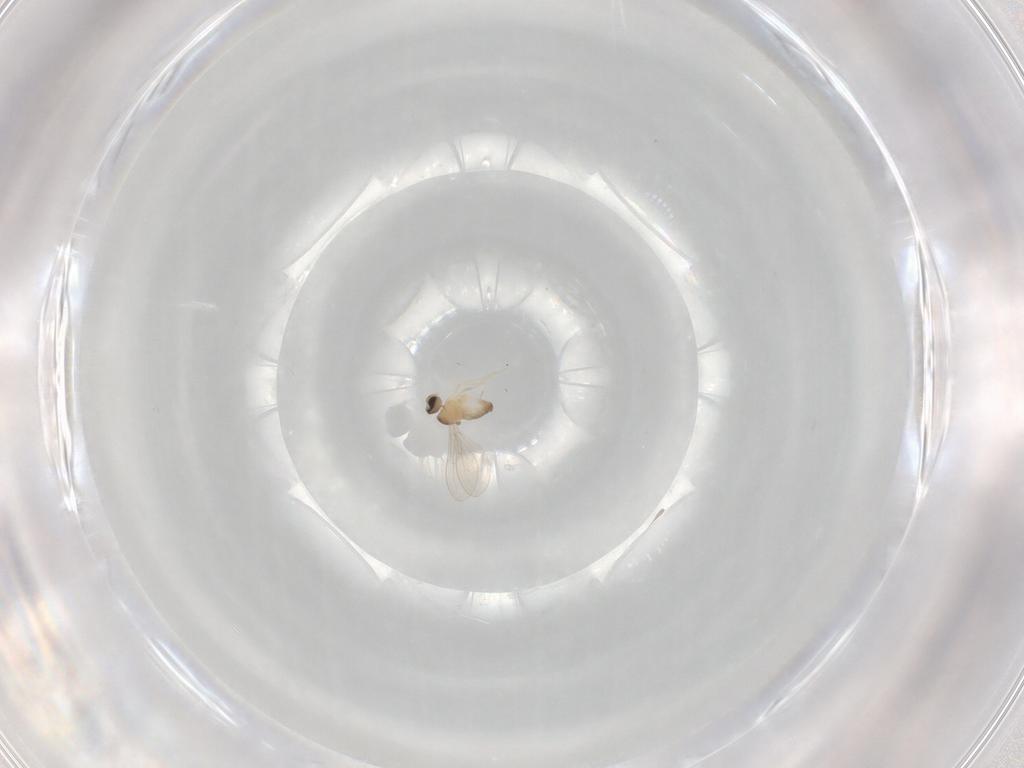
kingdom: Animalia
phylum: Arthropoda
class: Insecta
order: Diptera
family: Cecidomyiidae
